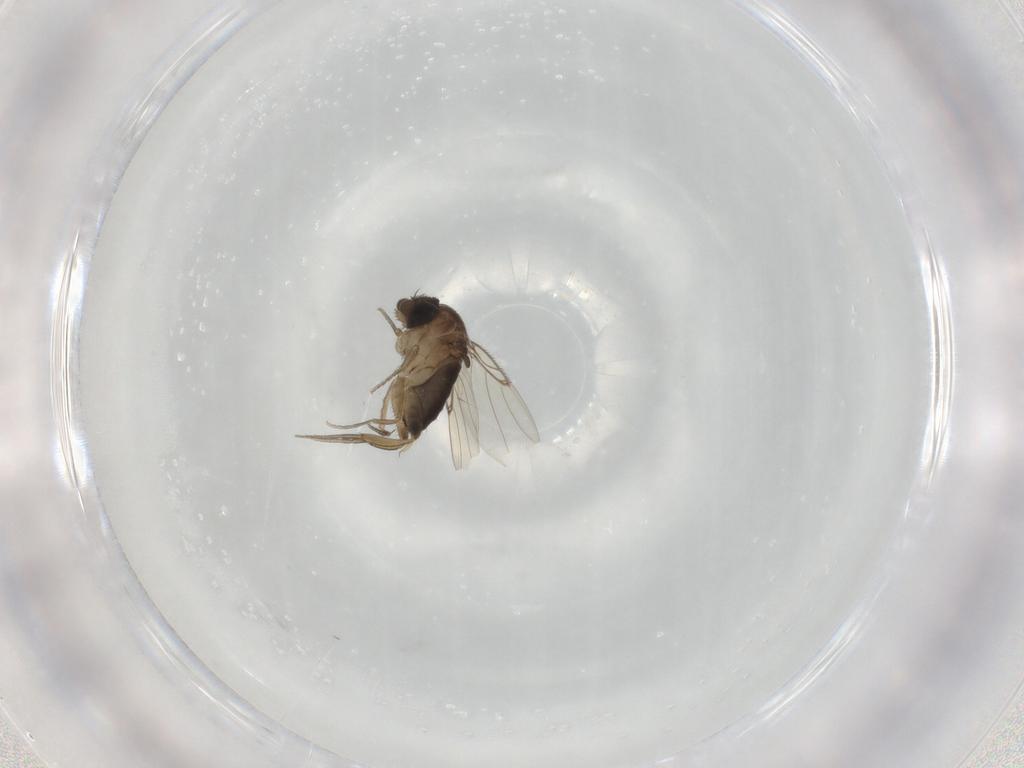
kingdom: Animalia
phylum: Arthropoda
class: Insecta
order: Diptera
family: Phoridae
